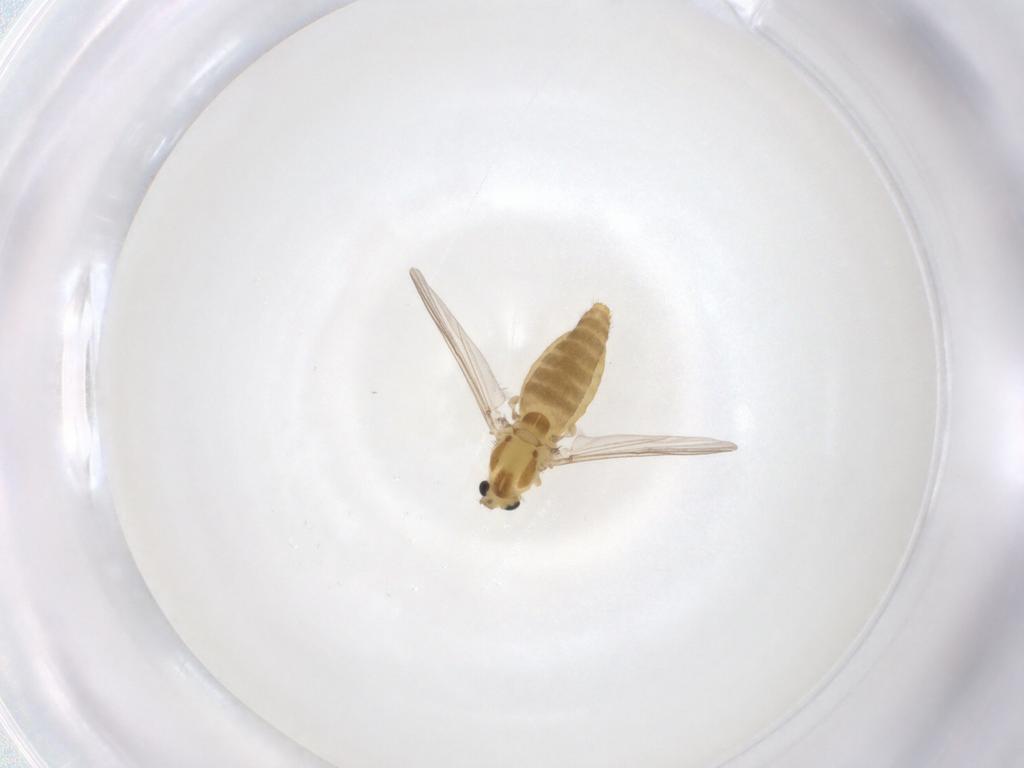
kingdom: Animalia
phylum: Arthropoda
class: Insecta
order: Diptera
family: Chironomidae
